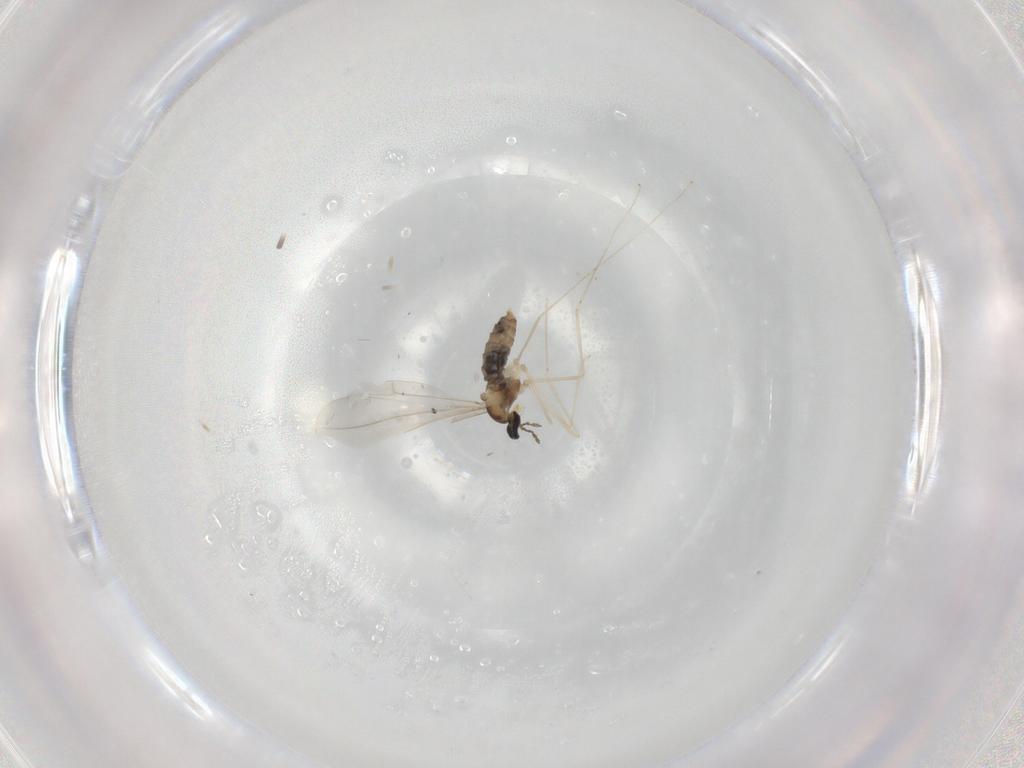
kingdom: Animalia
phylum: Arthropoda
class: Insecta
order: Diptera
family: Cecidomyiidae
